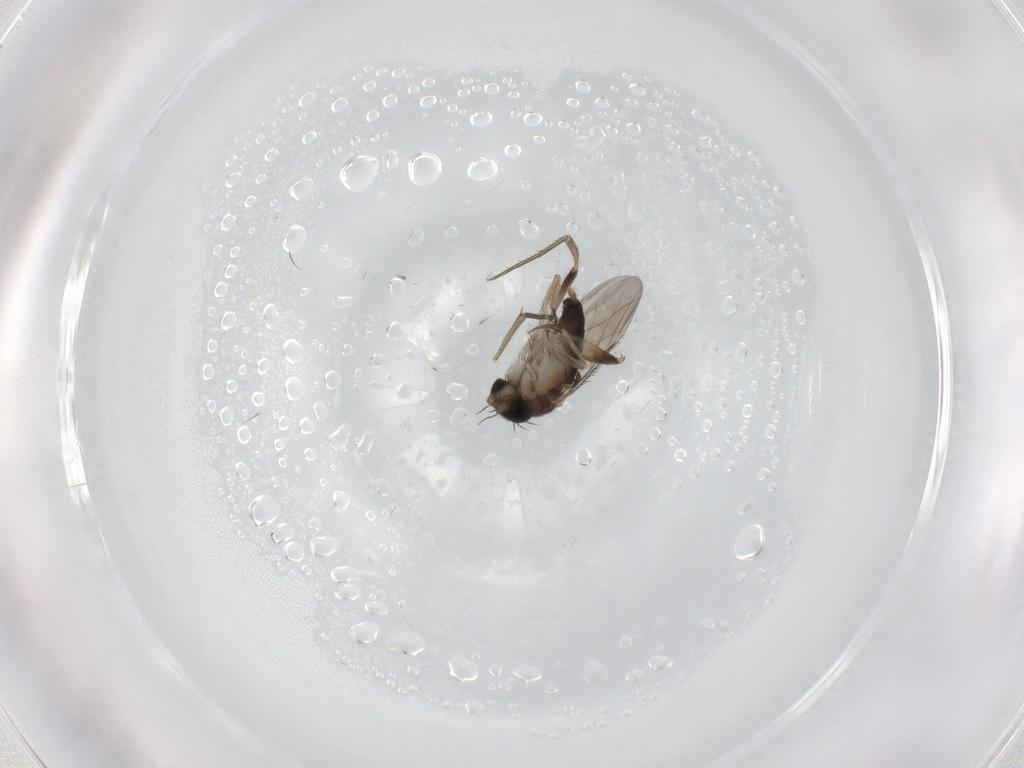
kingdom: Animalia
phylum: Arthropoda
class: Insecta
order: Diptera
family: Phoridae
